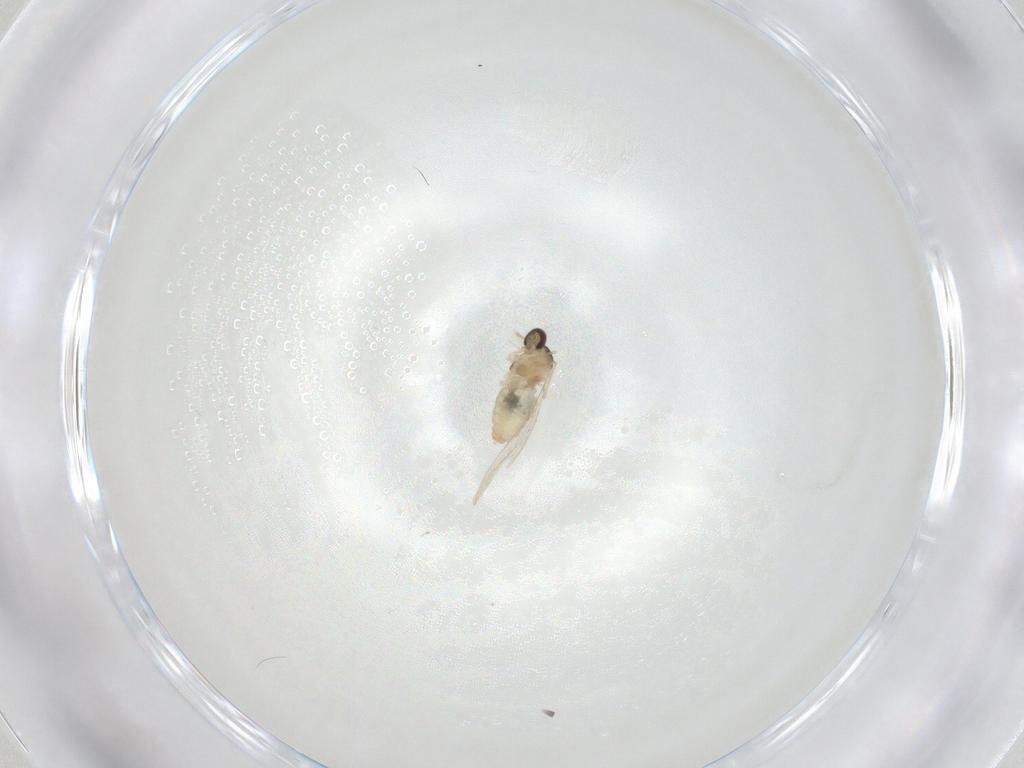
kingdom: Animalia
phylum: Arthropoda
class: Insecta
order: Diptera
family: Cecidomyiidae
